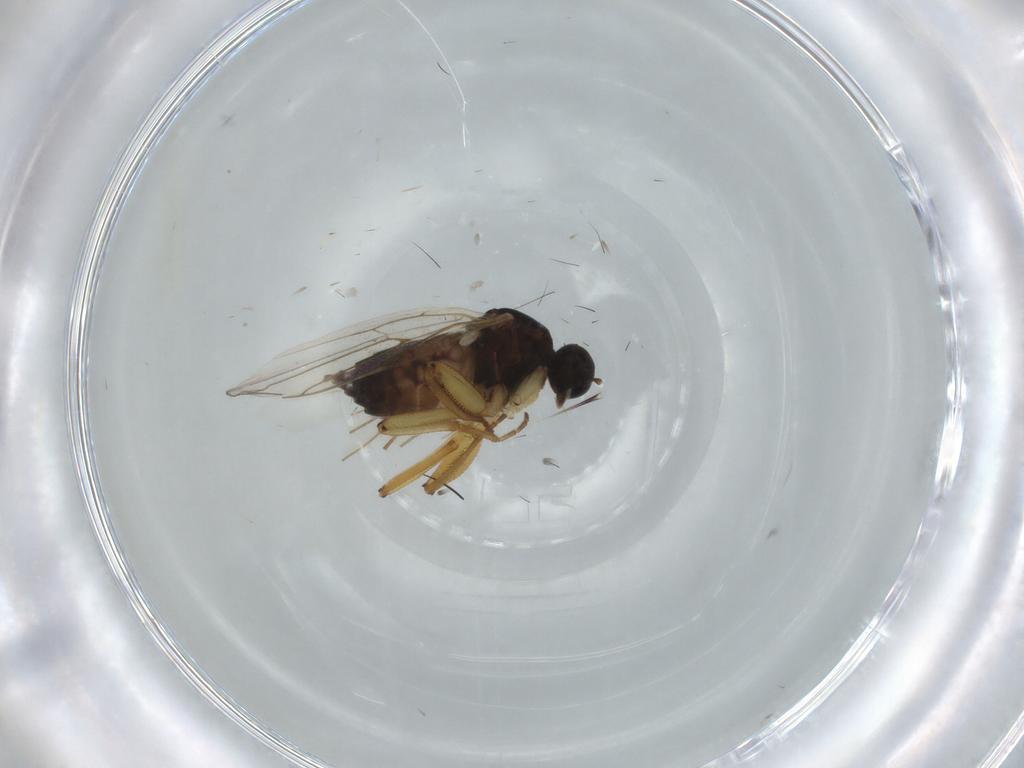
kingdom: Animalia
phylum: Arthropoda
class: Insecta
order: Diptera
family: Hybotidae
